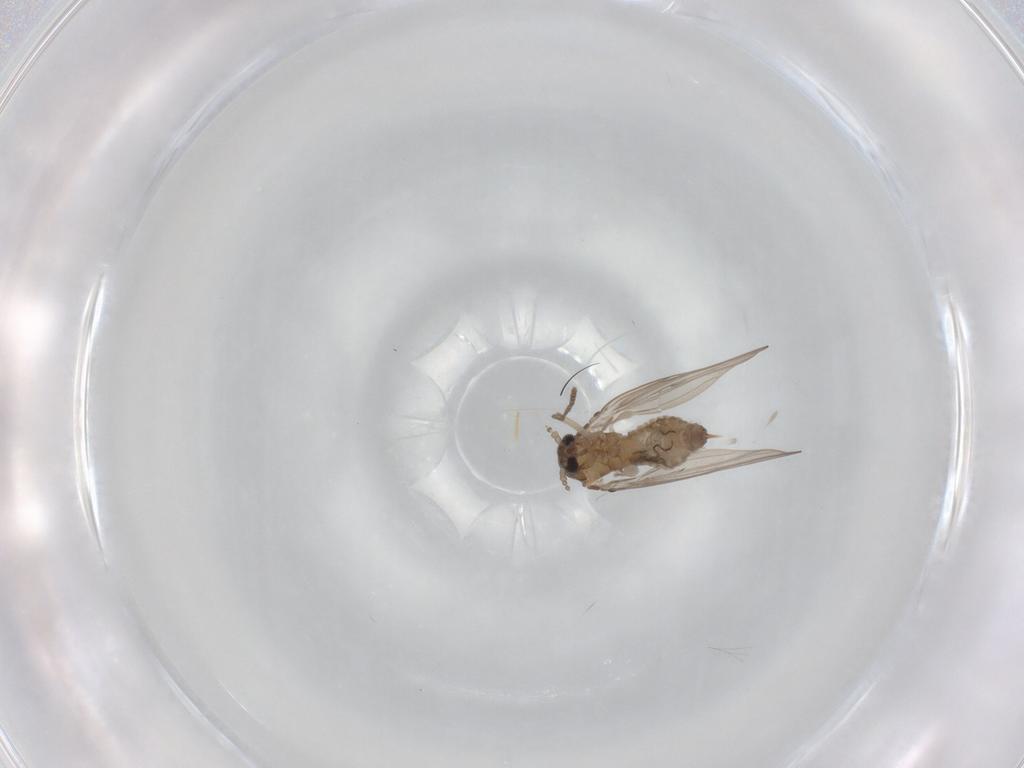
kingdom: Animalia
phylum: Arthropoda
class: Insecta
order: Diptera
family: Psychodidae
